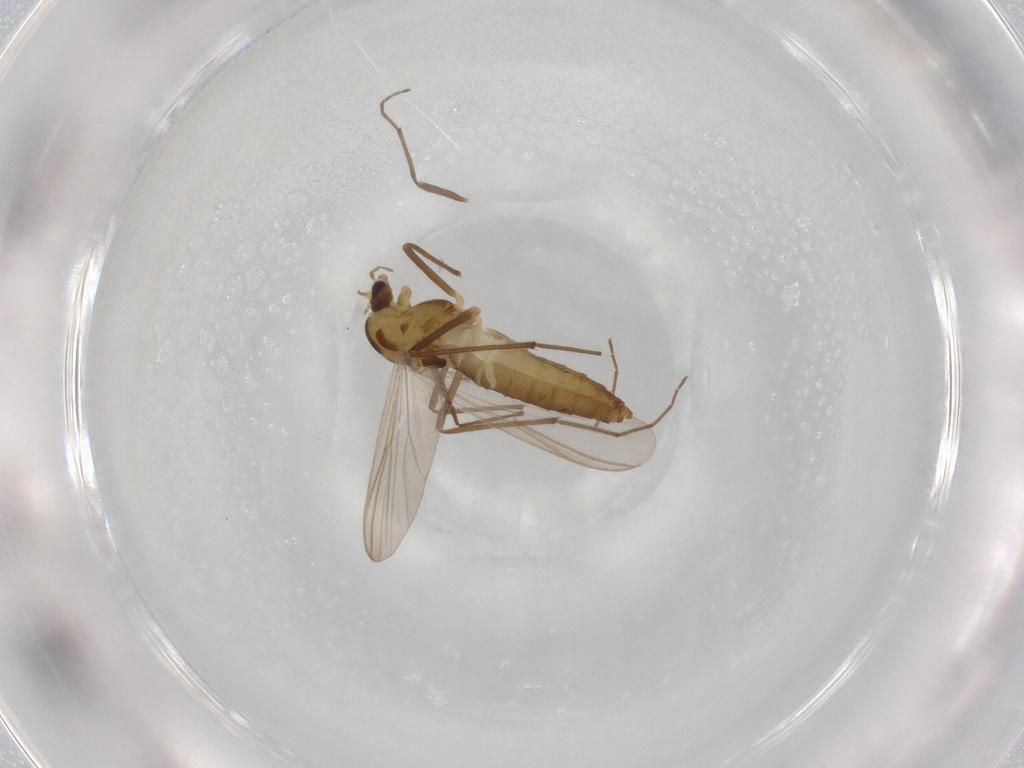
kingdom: Animalia
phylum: Arthropoda
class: Insecta
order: Diptera
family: Chironomidae
